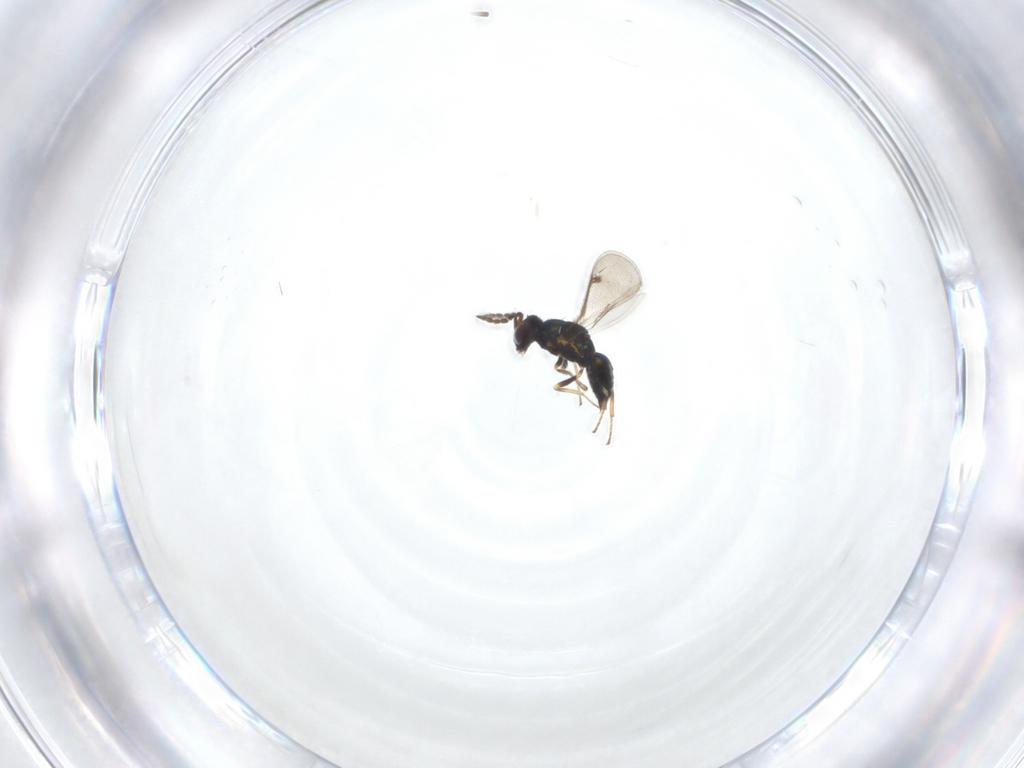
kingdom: Animalia
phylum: Arthropoda
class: Insecta
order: Hymenoptera
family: Eulophidae
